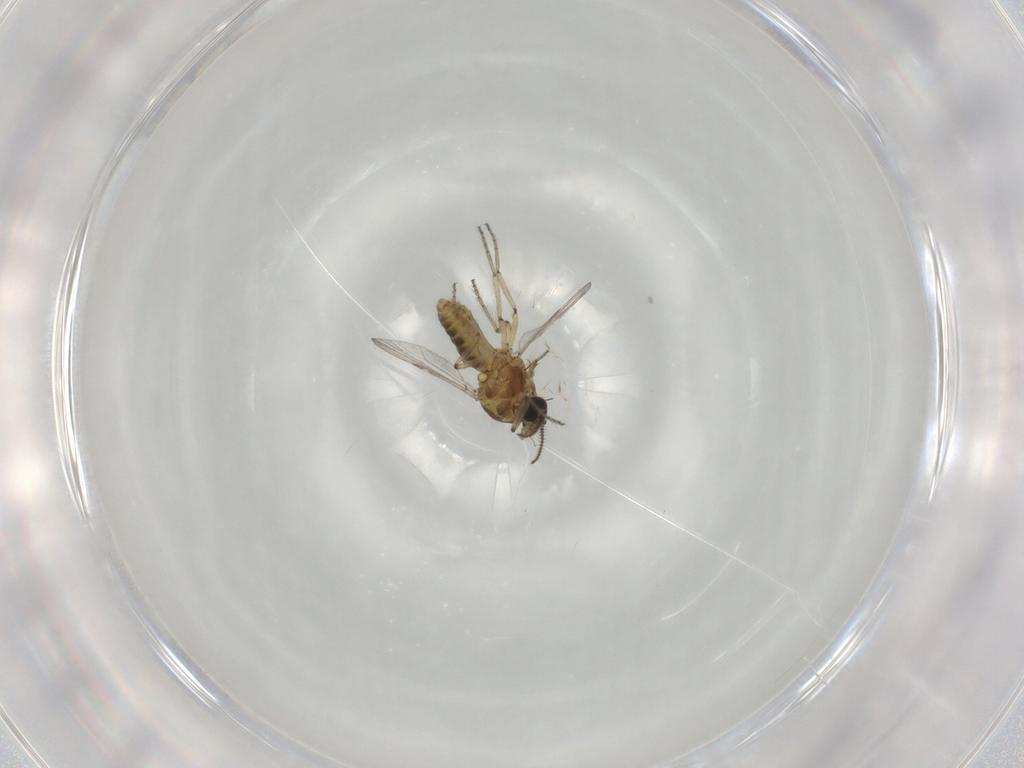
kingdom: Animalia
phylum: Arthropoda
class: Insecta
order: Diptera
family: Ceratopogonidae
